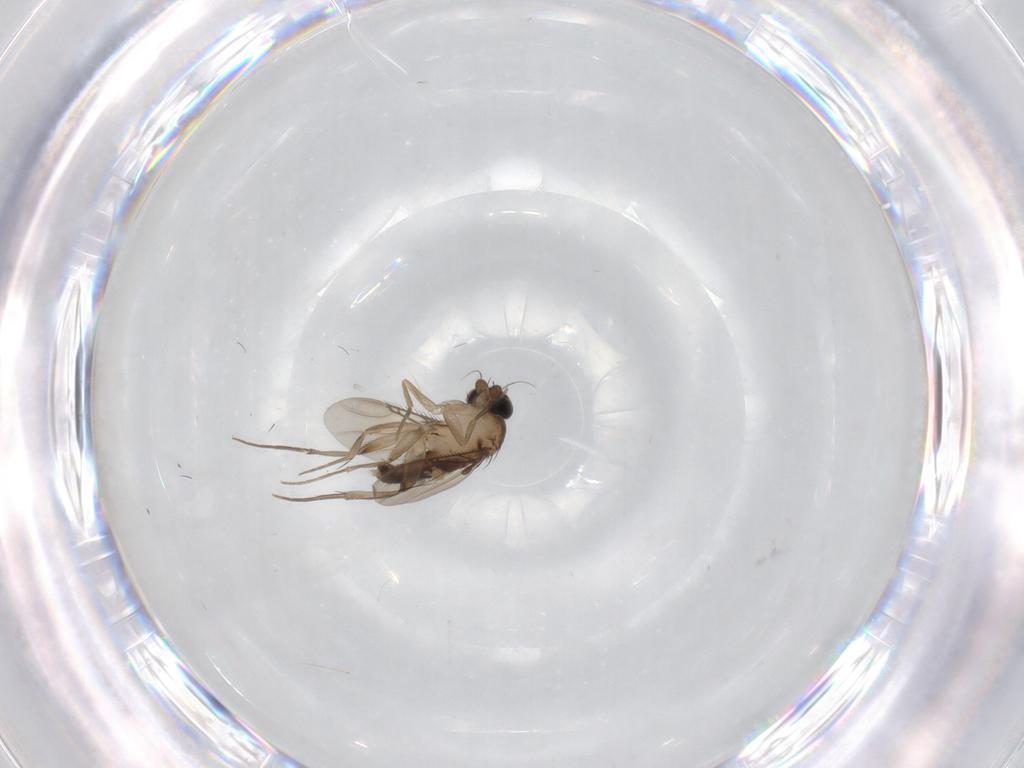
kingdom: Animalia
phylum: Arthropoda
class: Insecta
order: Diptera
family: Phoridae
